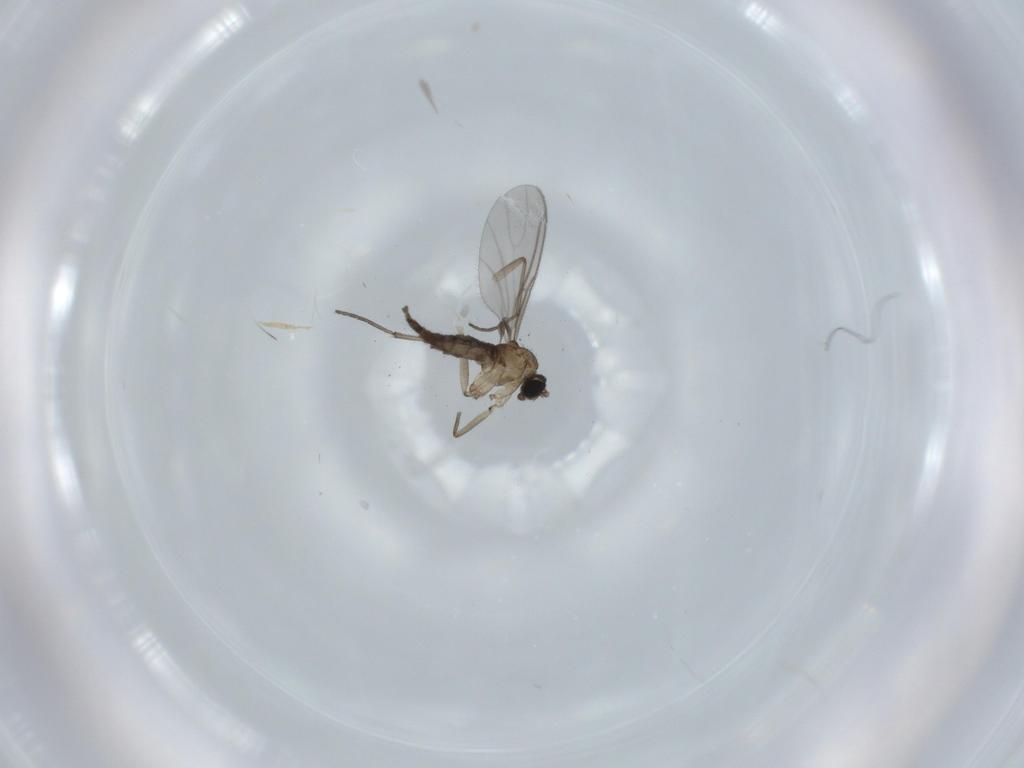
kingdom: Animalia
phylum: Arthropoda
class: Insecta
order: Diptera
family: Sciaridae
